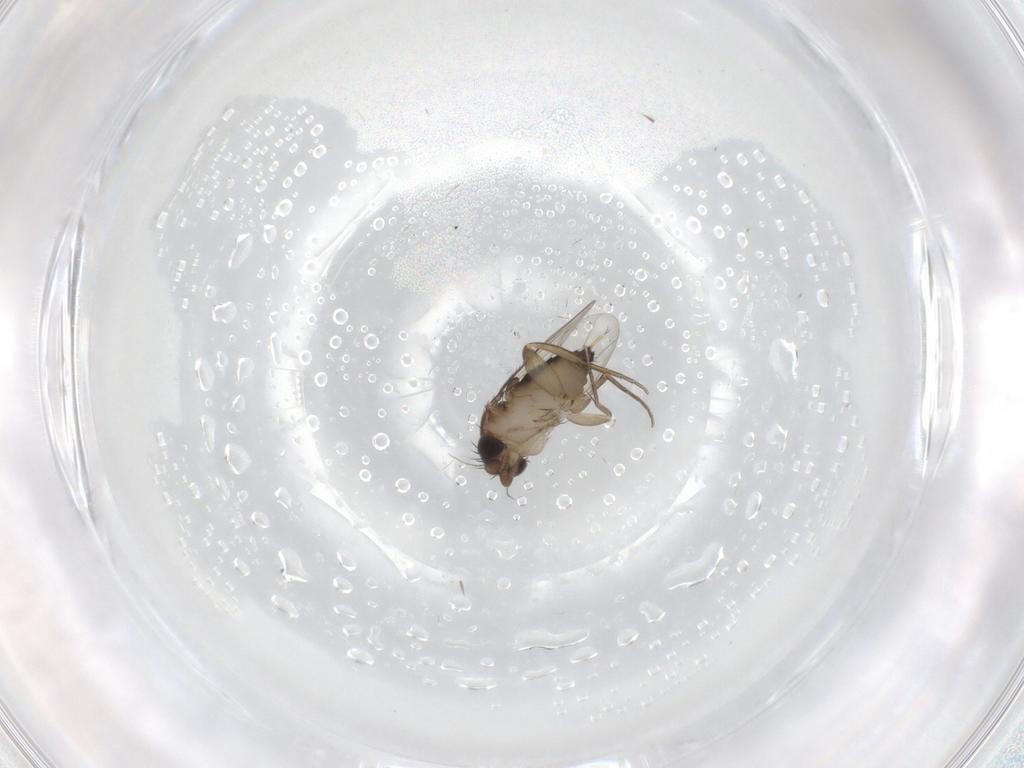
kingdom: Animalia
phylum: Arthropoda
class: Insecta
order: Diptera
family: Phoridae
